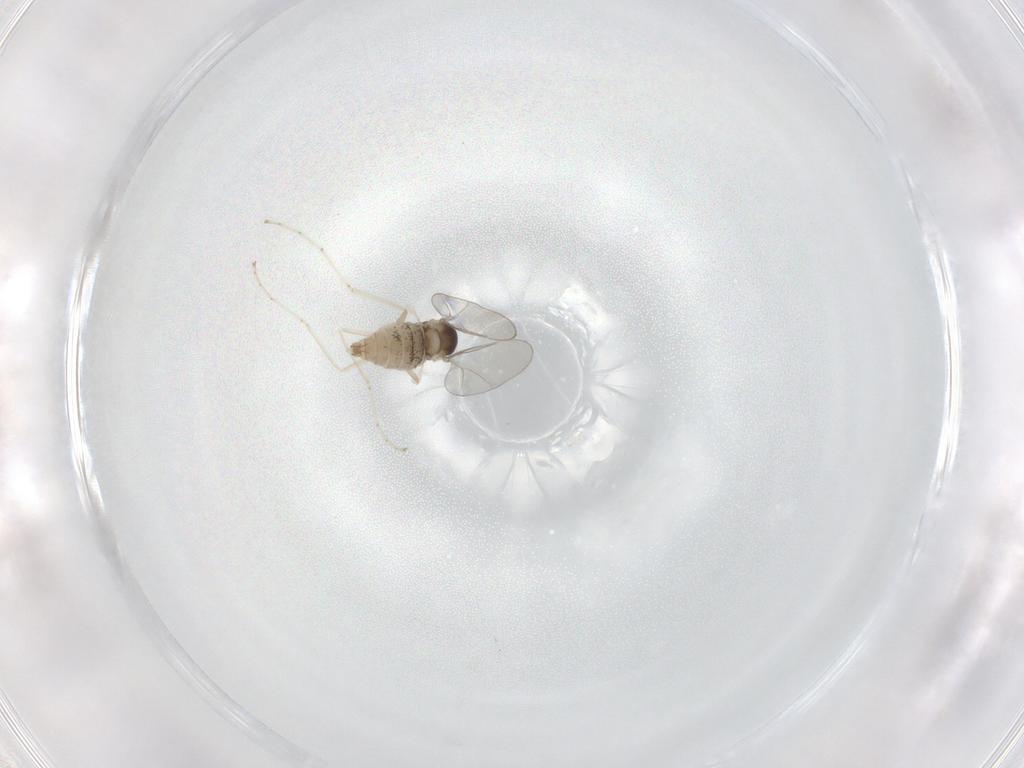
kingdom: Animalia
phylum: Arthropoda
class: Insecta
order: Diptera
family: Cecidomyiidae
